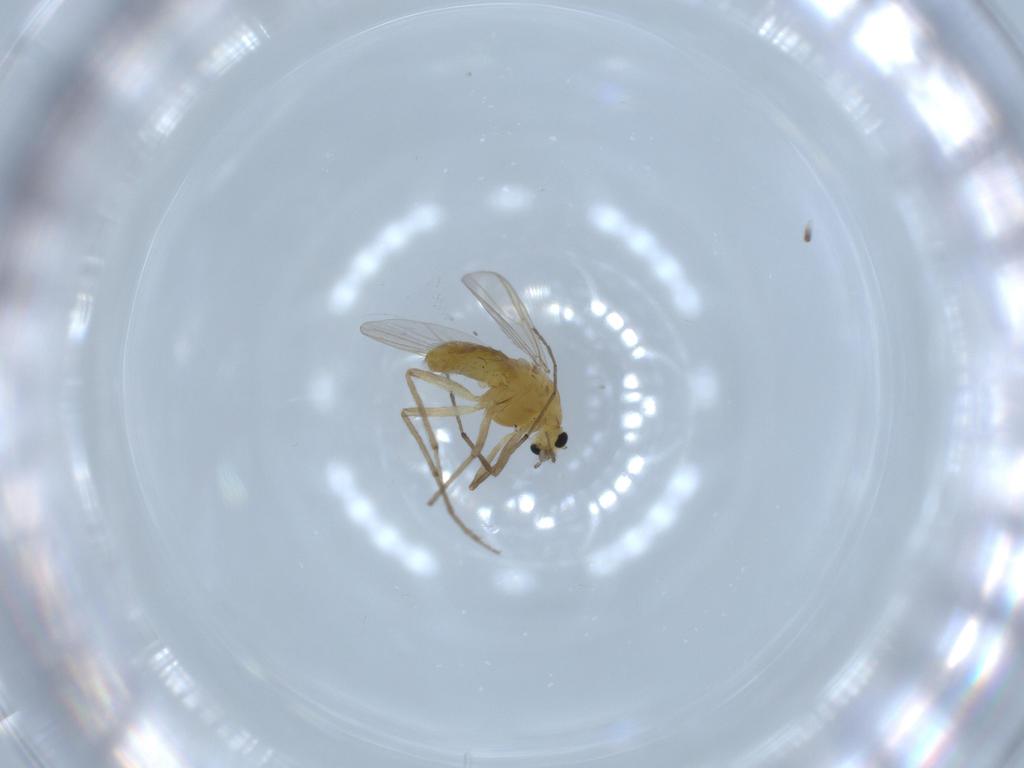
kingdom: Animalia
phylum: Arthropoda
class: Insecta
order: Diptera
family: Chironomidae
